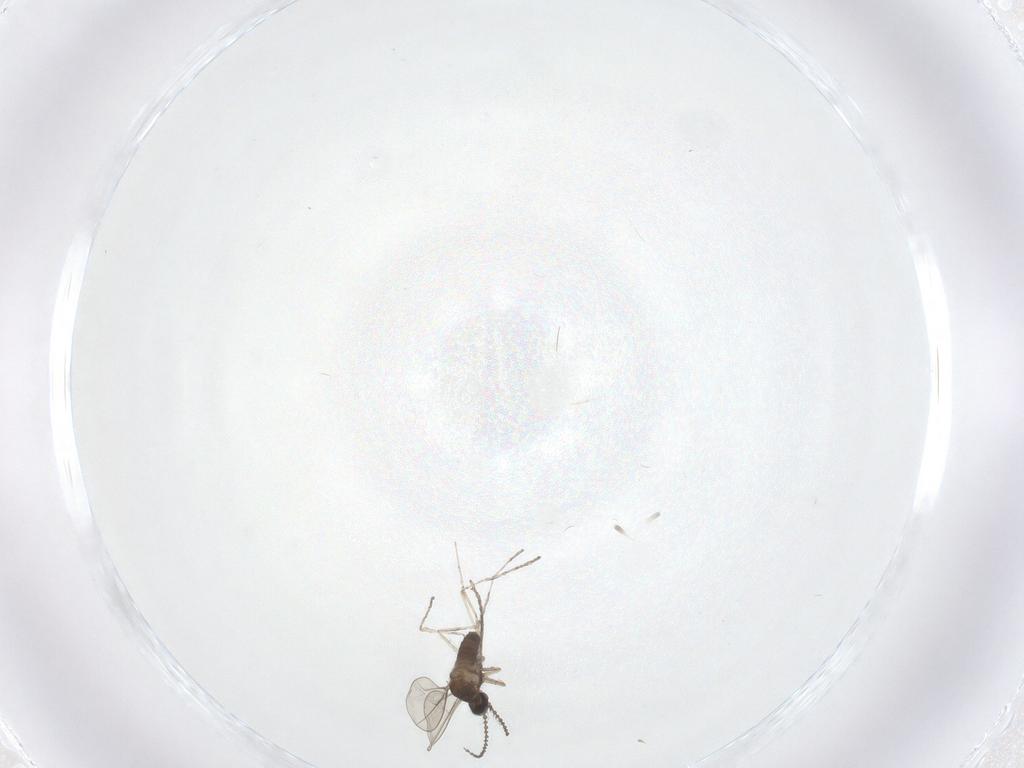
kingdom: Animalia
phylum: Arthropoda
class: Insecta
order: Diptera
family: Cecidomyiidae
